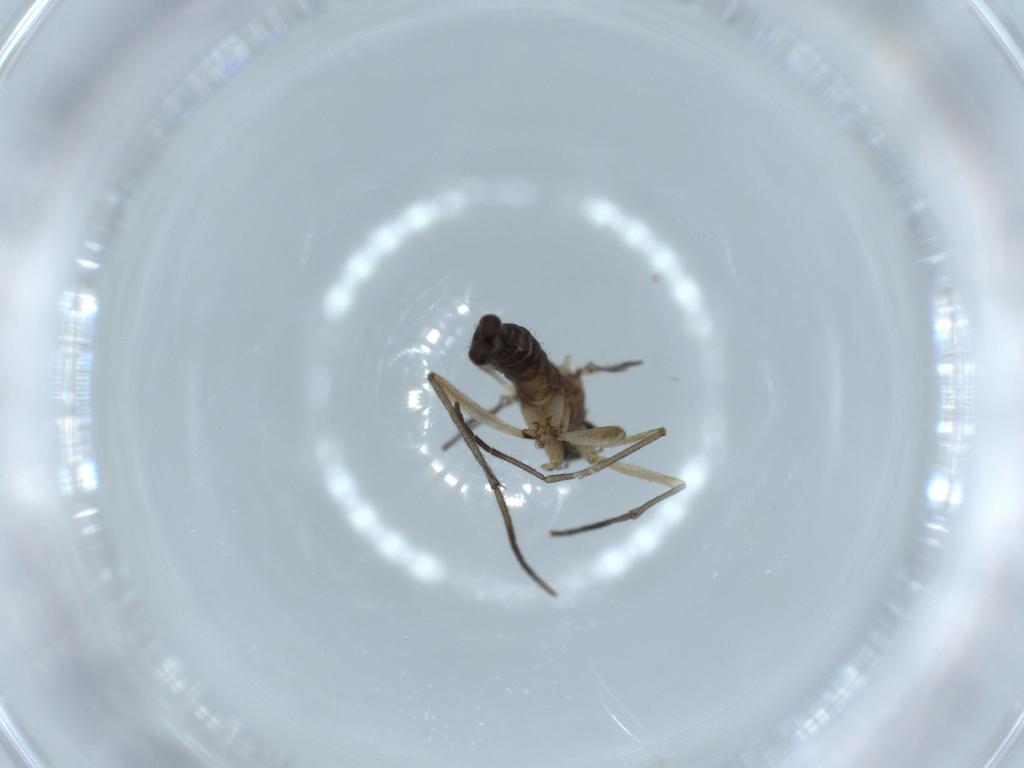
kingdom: Animalia
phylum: Arthropoda
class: Insecta
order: Diptera
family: Sciaridae
